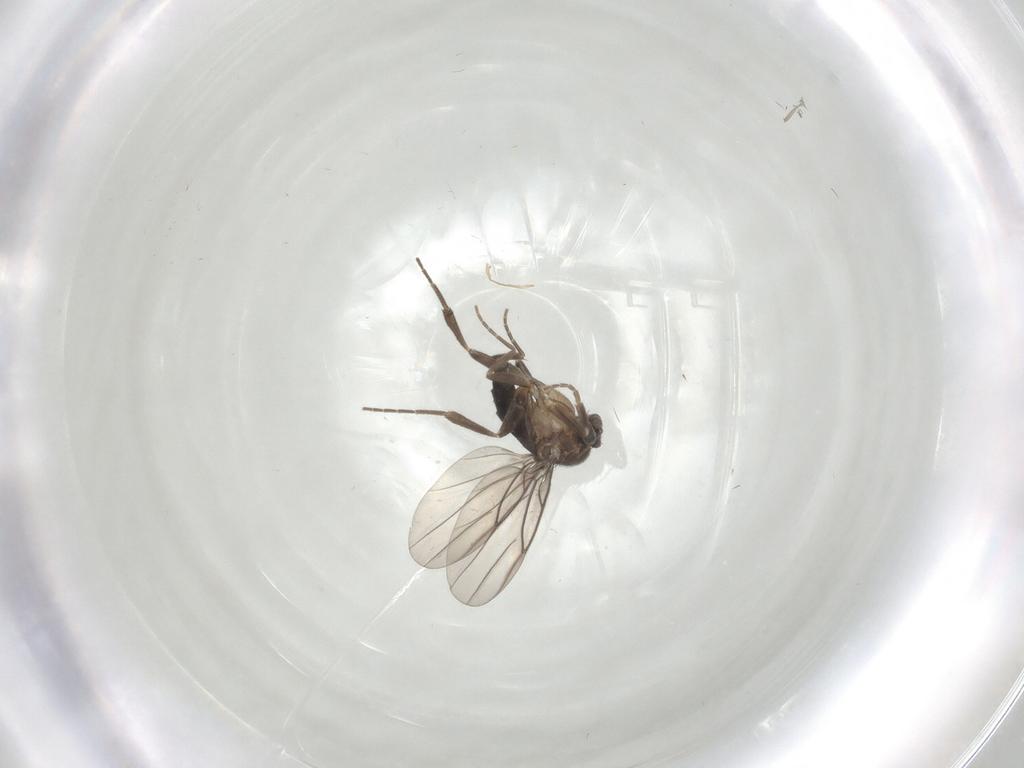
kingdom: Animalia
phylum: Arthropoda
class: Insecta
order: Diptera
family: Phoridae
